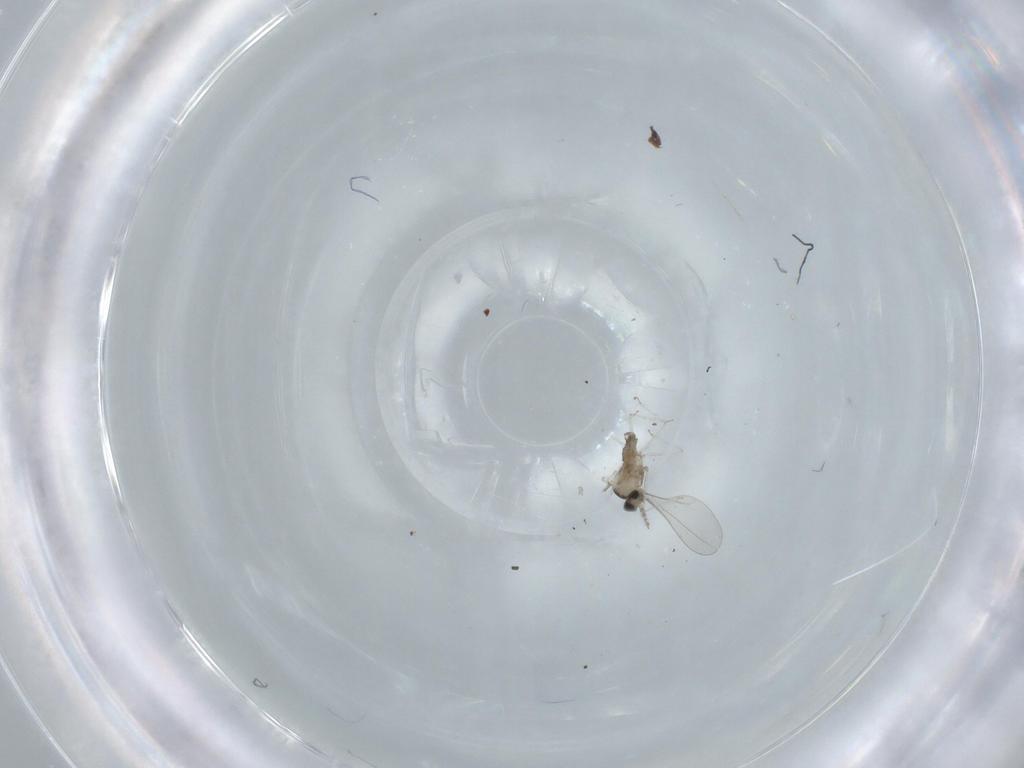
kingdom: Animalia
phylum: Arthropoda
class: Insecta
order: Diptera
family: Cecidomyiidae
